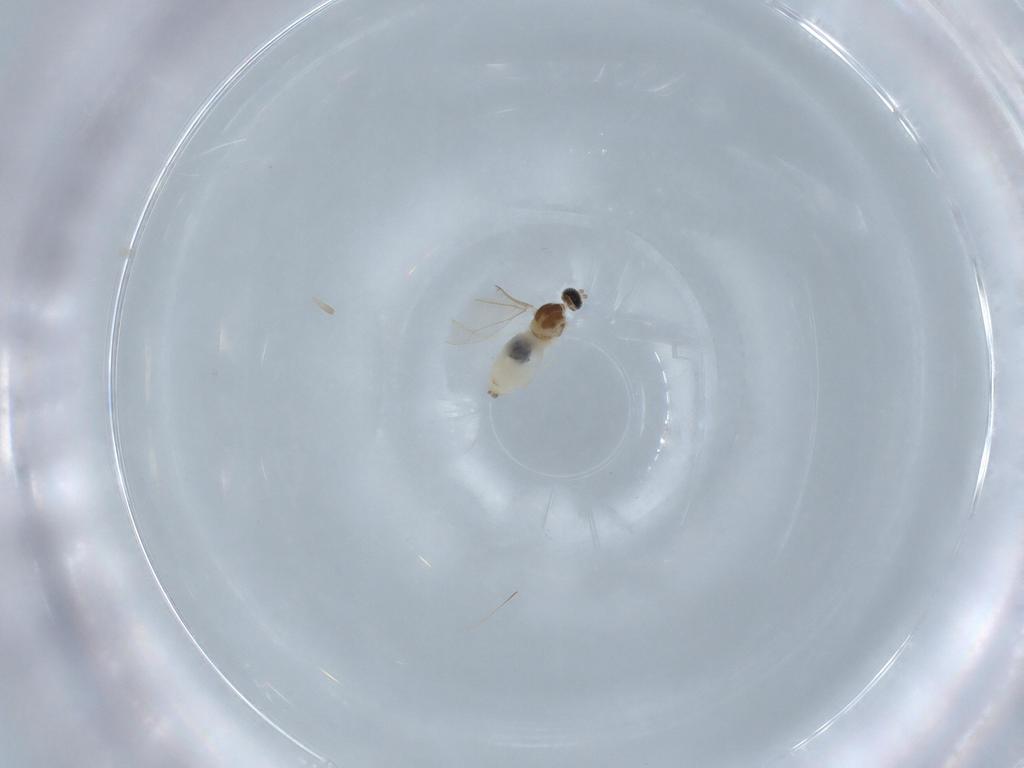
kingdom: Animalia
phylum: Arthropoda
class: Insecta
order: Diptera
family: Cecidomyiidae
